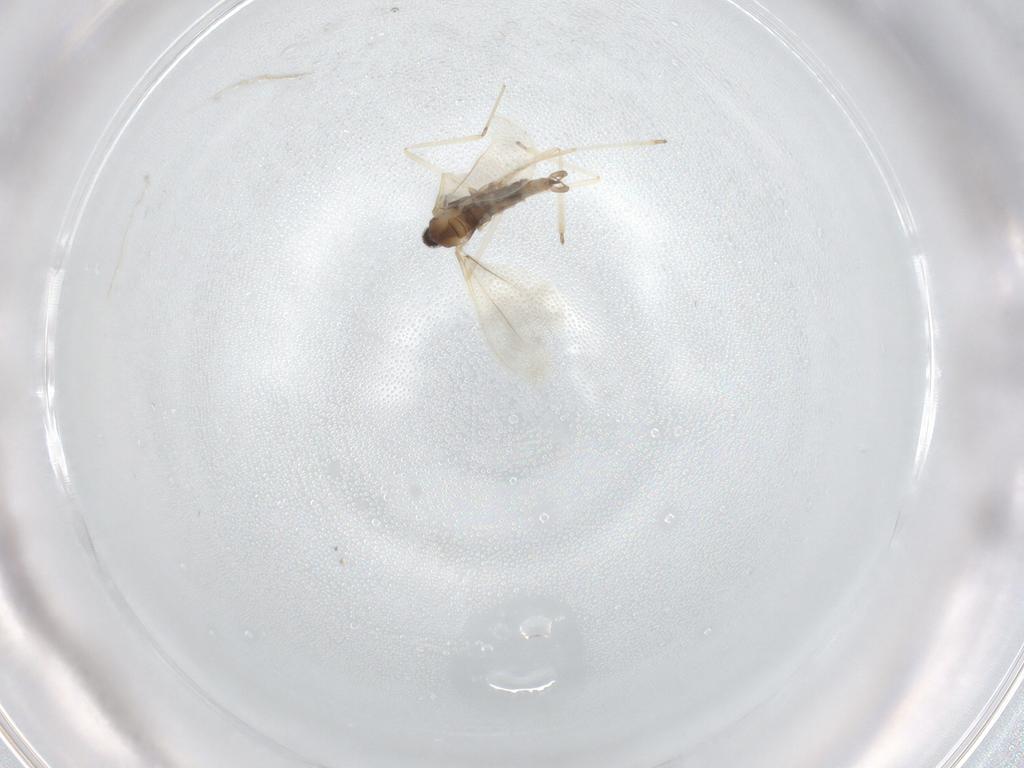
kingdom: Animalia
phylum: Arthropoda
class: Insecta
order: Diptera
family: Cecidomyiidae
